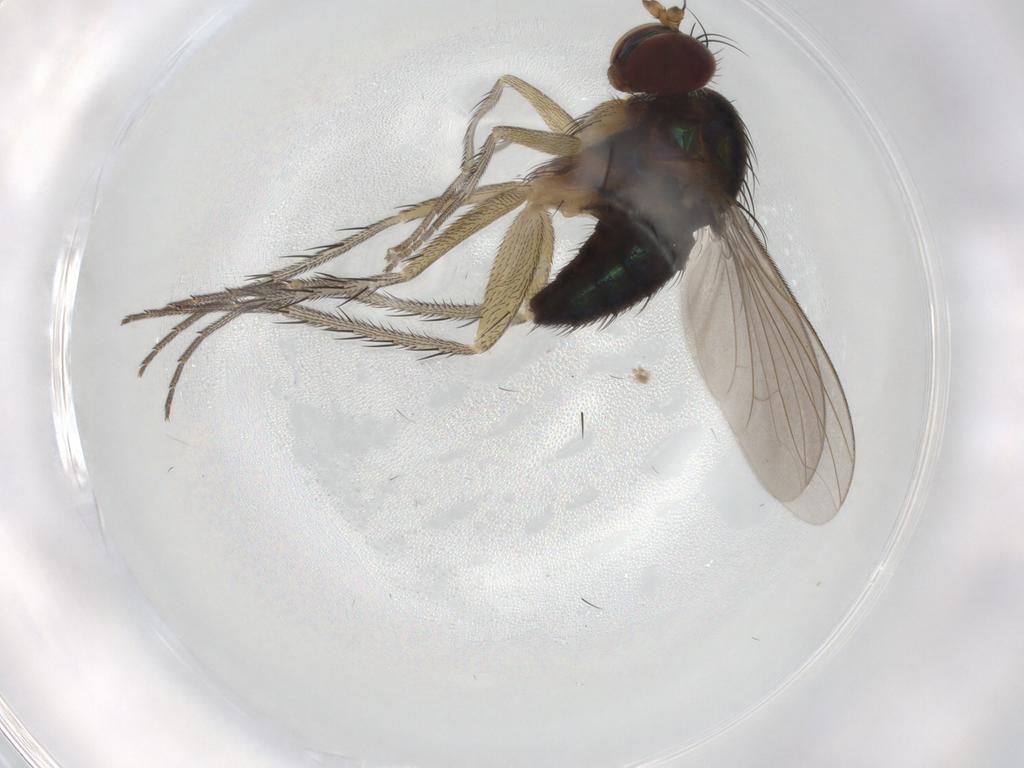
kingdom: Animalia
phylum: Arthropoda
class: Insecta
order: Diptera
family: Dolichopodidae
